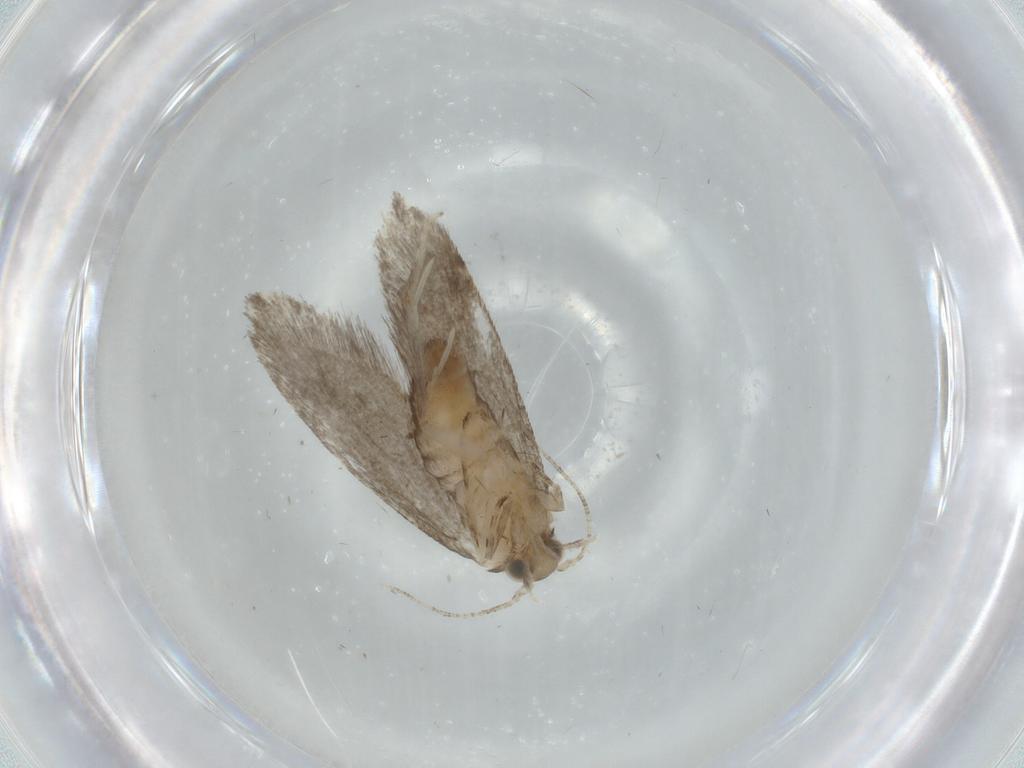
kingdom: Animalia
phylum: Arthropoda
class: Insecta
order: Lepidoptera
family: Tineidae
